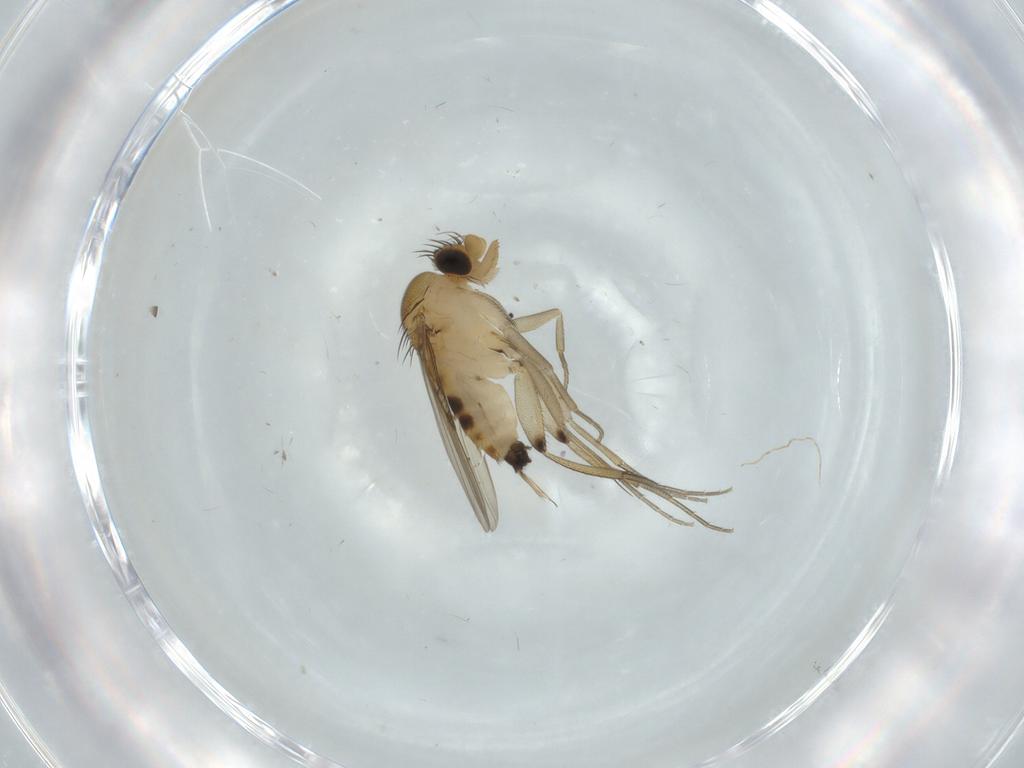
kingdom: Animalia
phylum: Arthropoda
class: Insecta
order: Diptera
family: Phoridae
